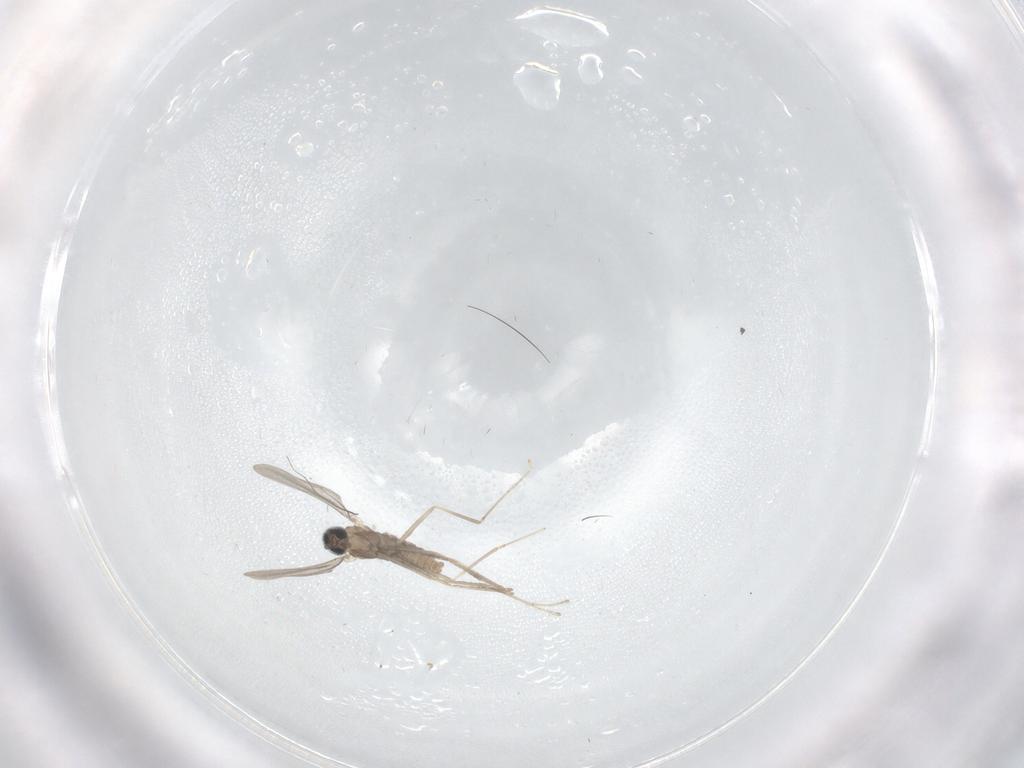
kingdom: Animalia
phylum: Arthropoda
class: Insecta
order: Diptera
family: Cecidomyiidae
